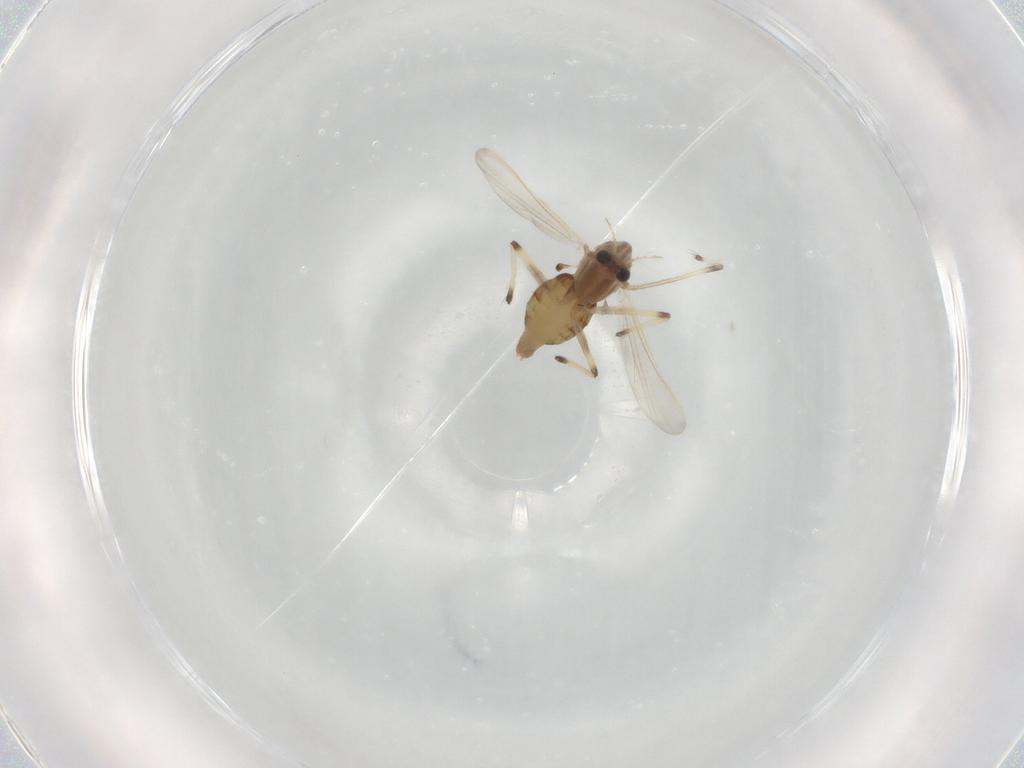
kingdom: Animalia
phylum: Arthropoda
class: Insecta
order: Diptera
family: Chironomidae
